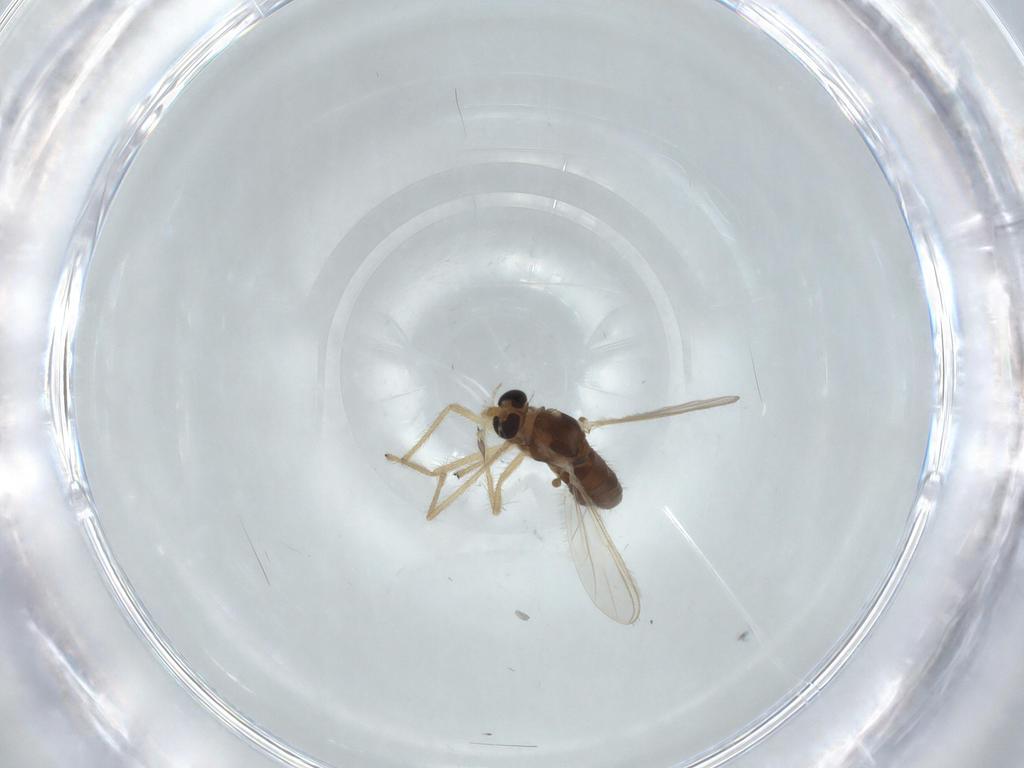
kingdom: Animalia
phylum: Arthropoda
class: Insecta
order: Diptera
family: Chironomidae
